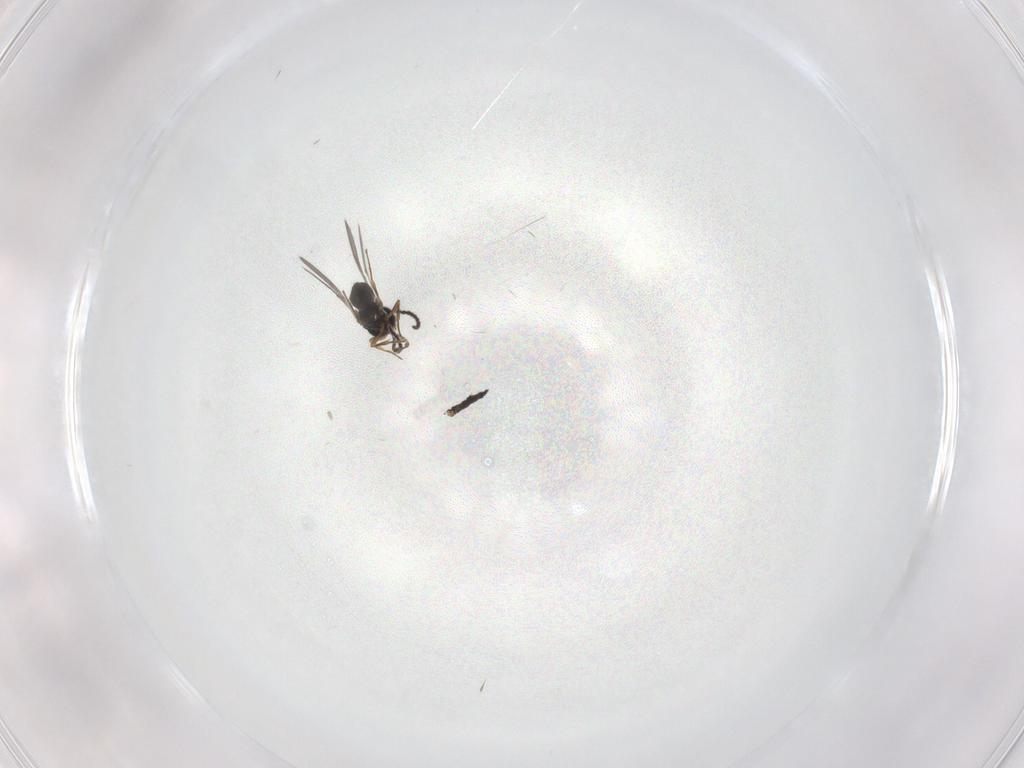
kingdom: Animalia
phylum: Arthropoda
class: Insecta
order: Hymenoptera
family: Scelionidae
